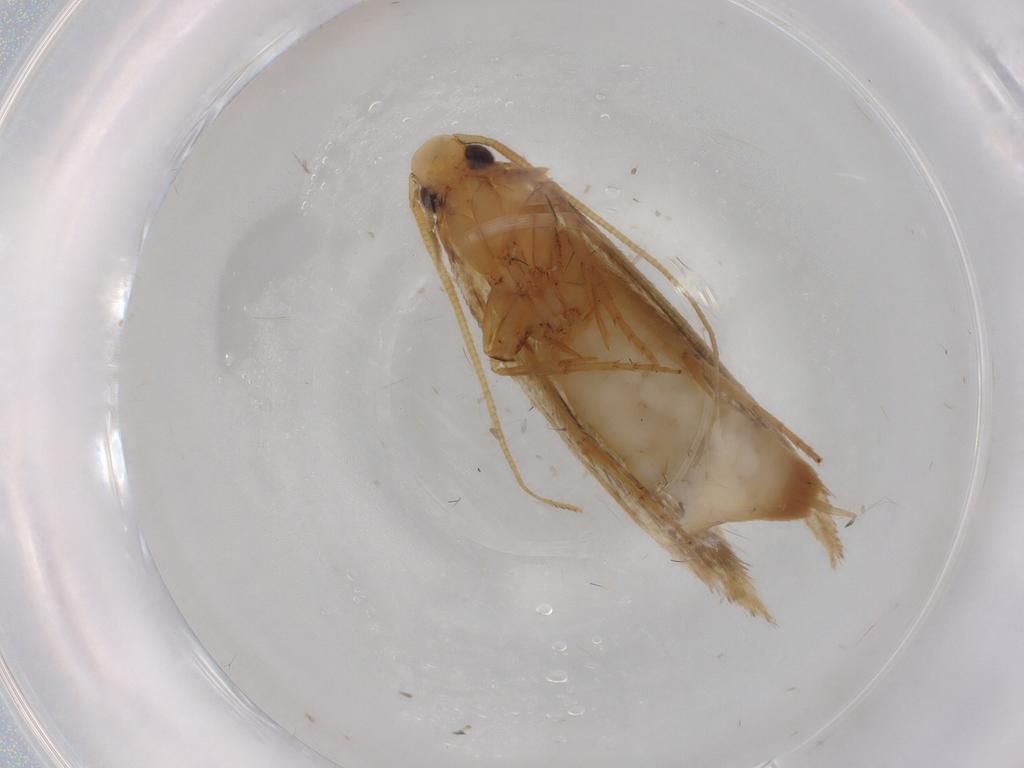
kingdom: Animalia
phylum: Arthropoda
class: Insecta
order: Lepidoptera
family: Tineidae
